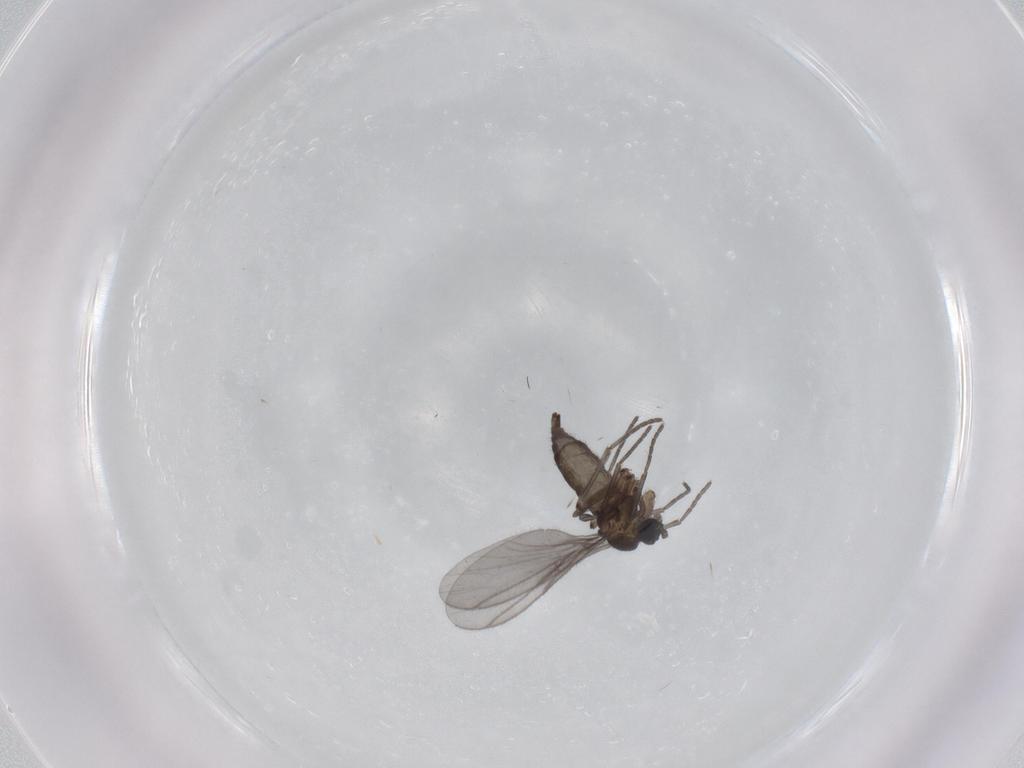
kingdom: Animalia
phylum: Arthropoda
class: Insecta
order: Diptera
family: Sciaridae
